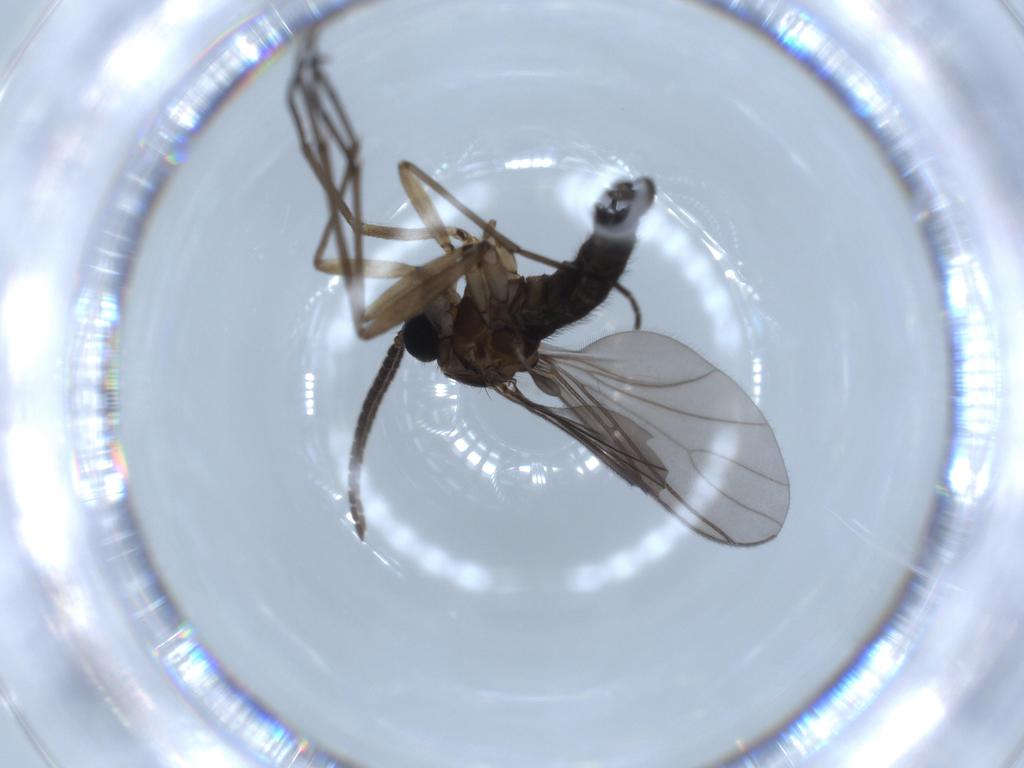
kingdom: Animalia
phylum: Arthropoda
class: Insecta
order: Diptera
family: Sciaridae
